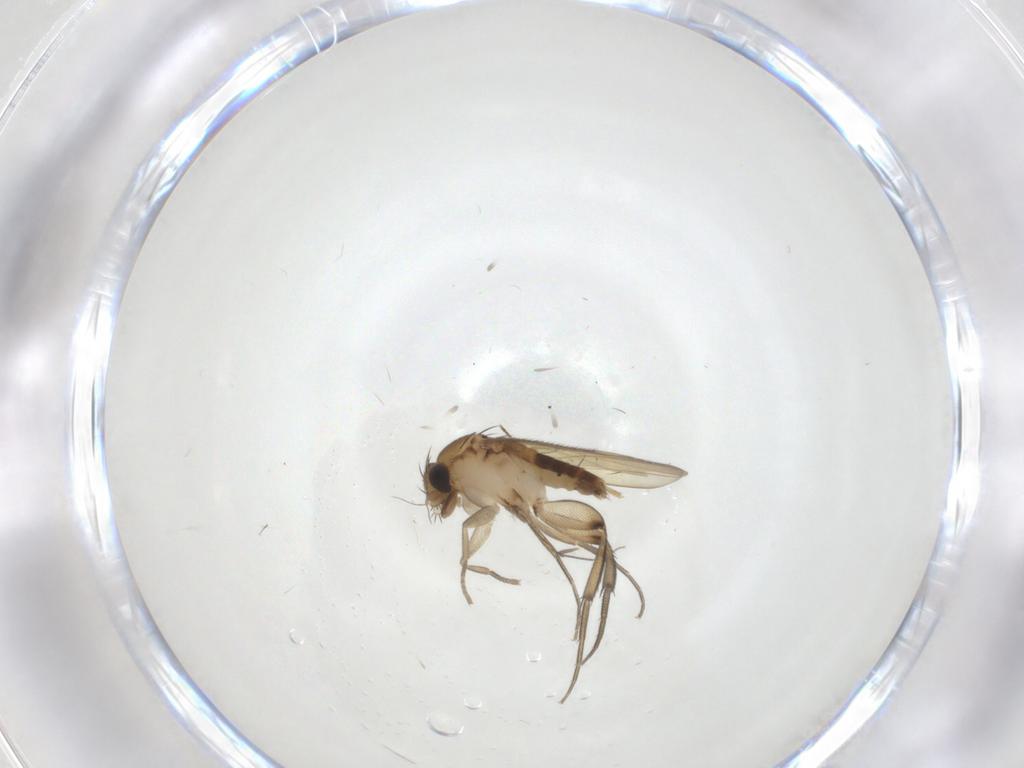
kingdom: Animalia
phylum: Arthropoda
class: Insecta
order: Diptera
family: Phoridae
